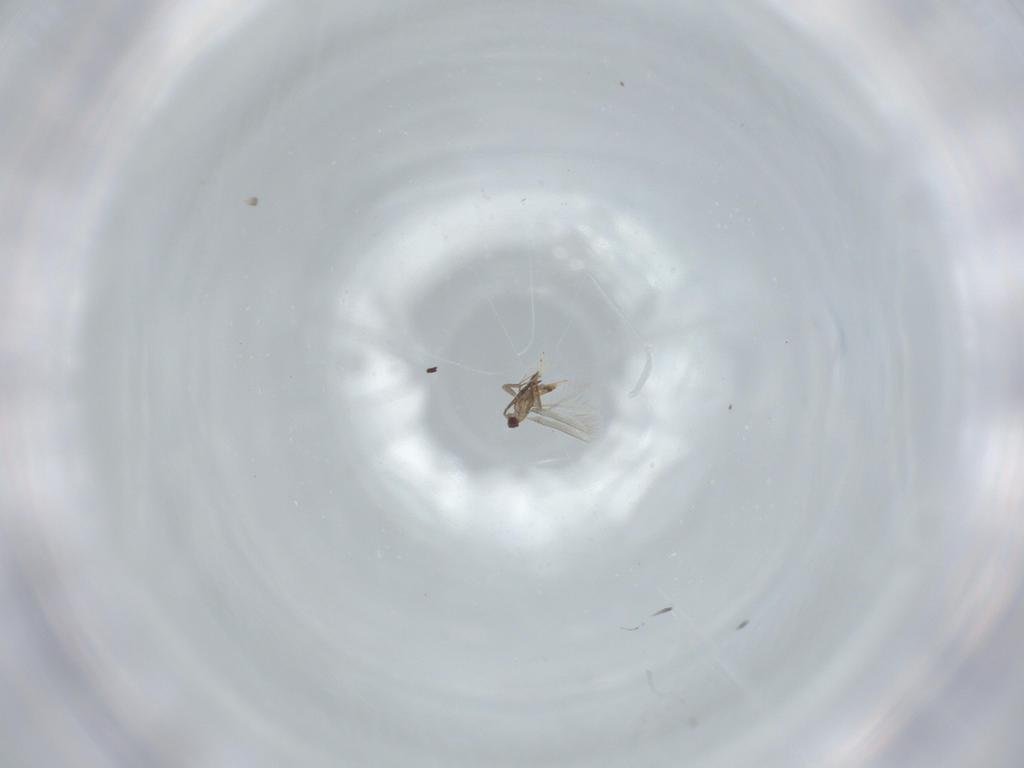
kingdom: Animalia
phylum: Arthropoda
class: Insecta
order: Hymenoptera
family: Mymaridae
